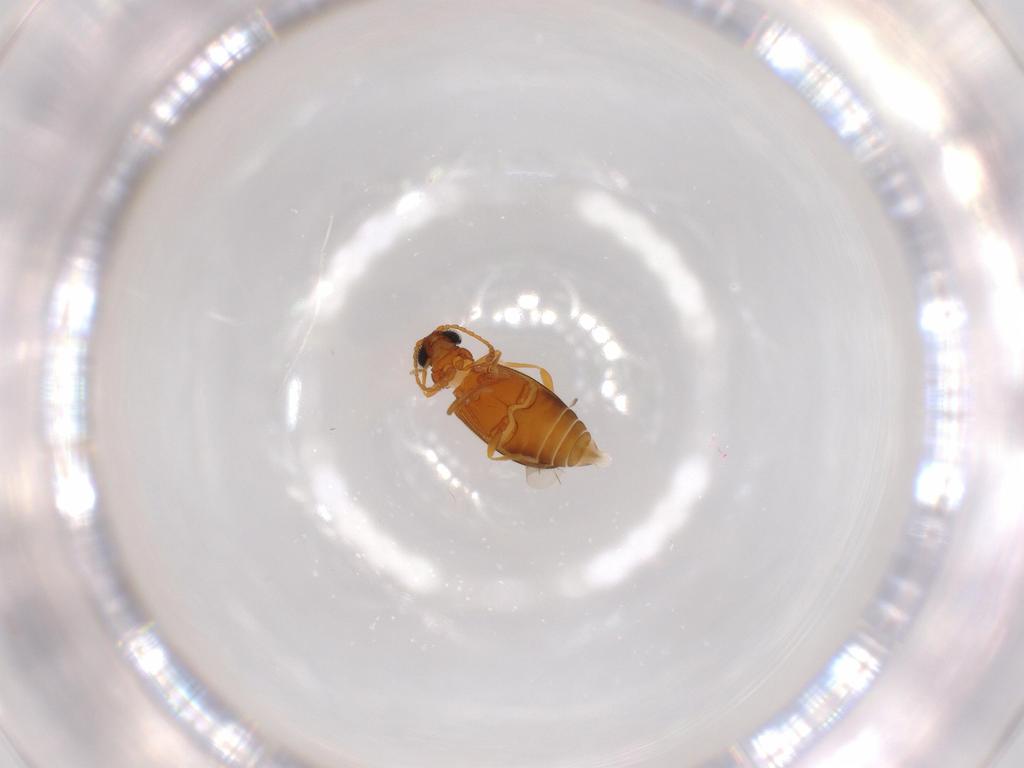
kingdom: Animalia
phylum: Arthropoda
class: Insecta
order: Coleoptera
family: Aderidae
